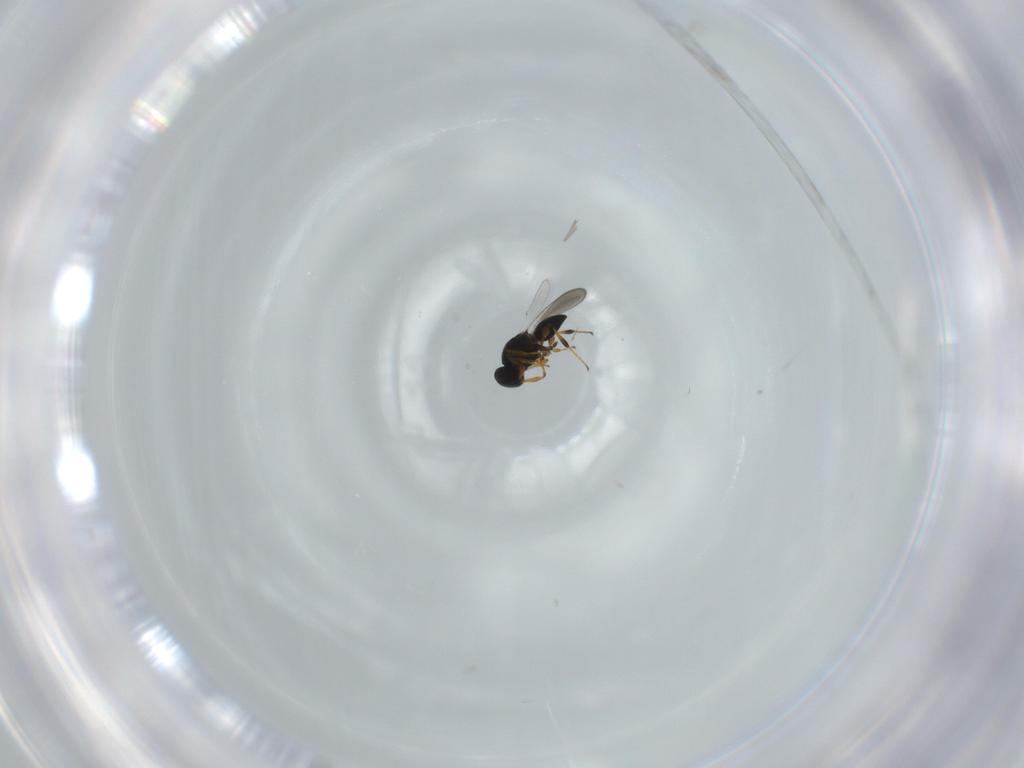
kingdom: Animalia
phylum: Arthropoda
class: Insecta
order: Hymenoptera
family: Platygastridae
